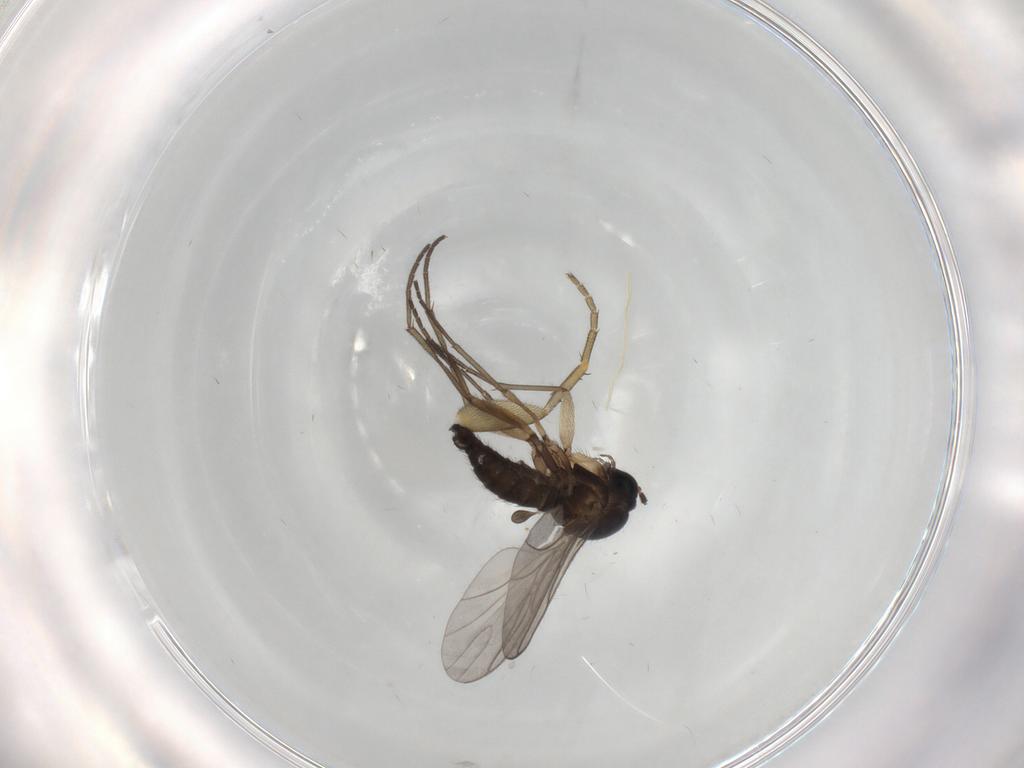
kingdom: Animalia
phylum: Arthropoda
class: Insecta
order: Diptera
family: Sciaridae
